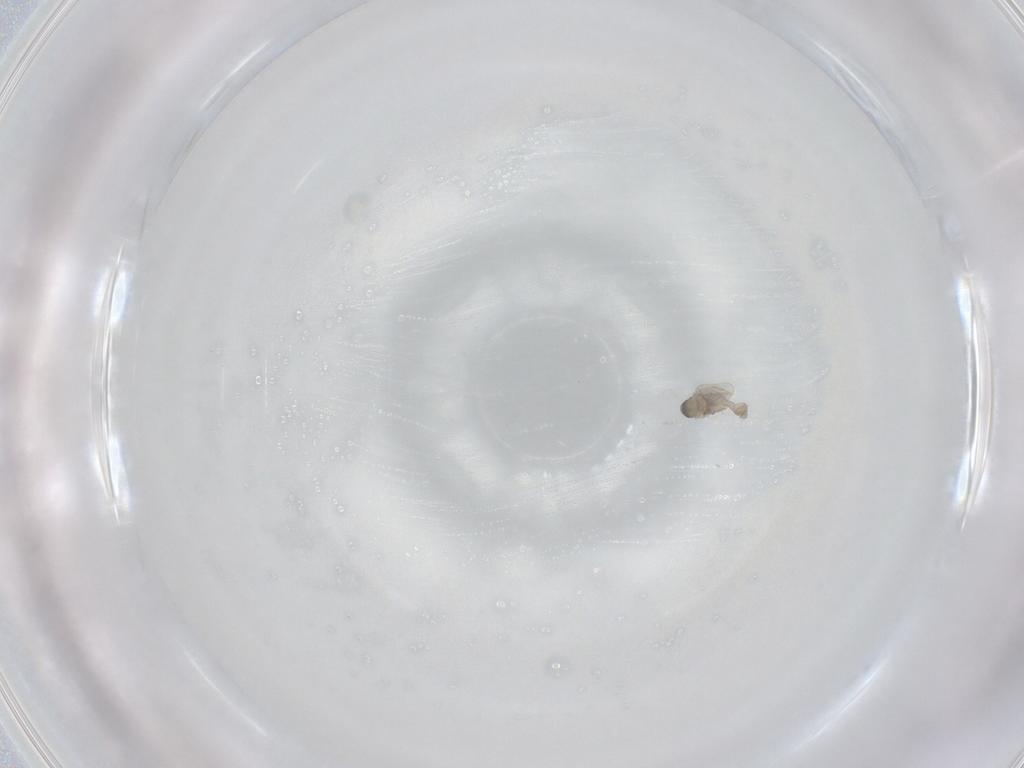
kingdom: Animalia
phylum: Arthropoda
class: Insecta
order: Diptera
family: Cecidomyiidae
